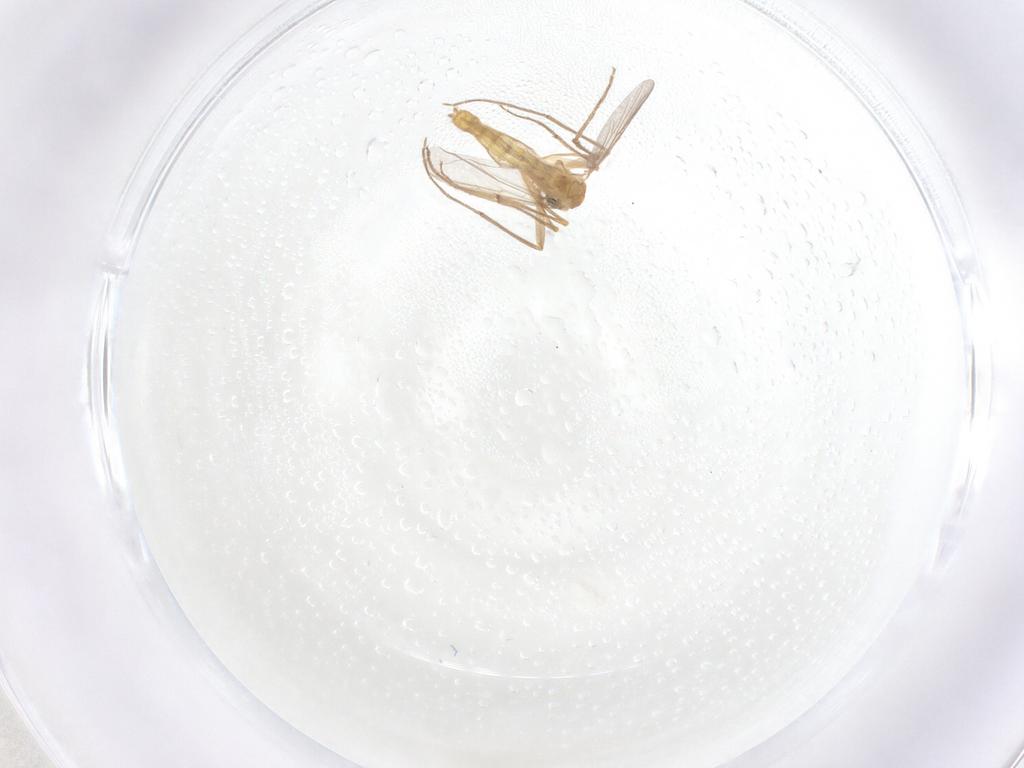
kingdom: Animalia
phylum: Arthropoda
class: Insecta
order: Diptera
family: Chironomidae
